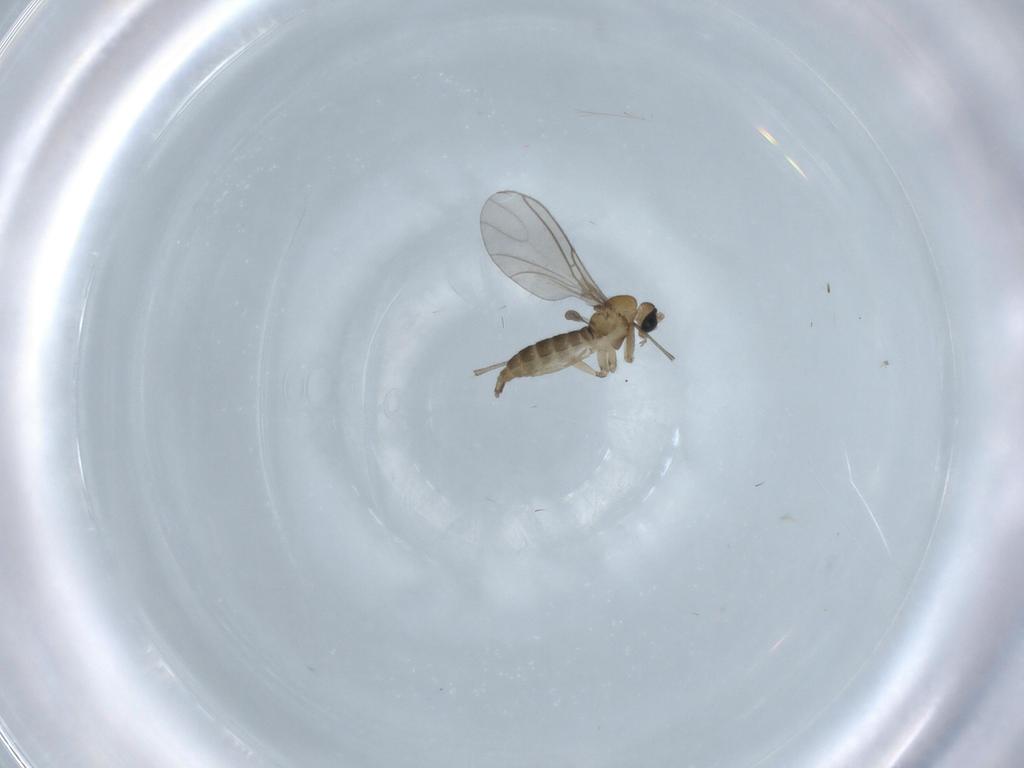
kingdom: Animalia
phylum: Arthropoda
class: Insecta
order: Diptera
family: Sciaridae
